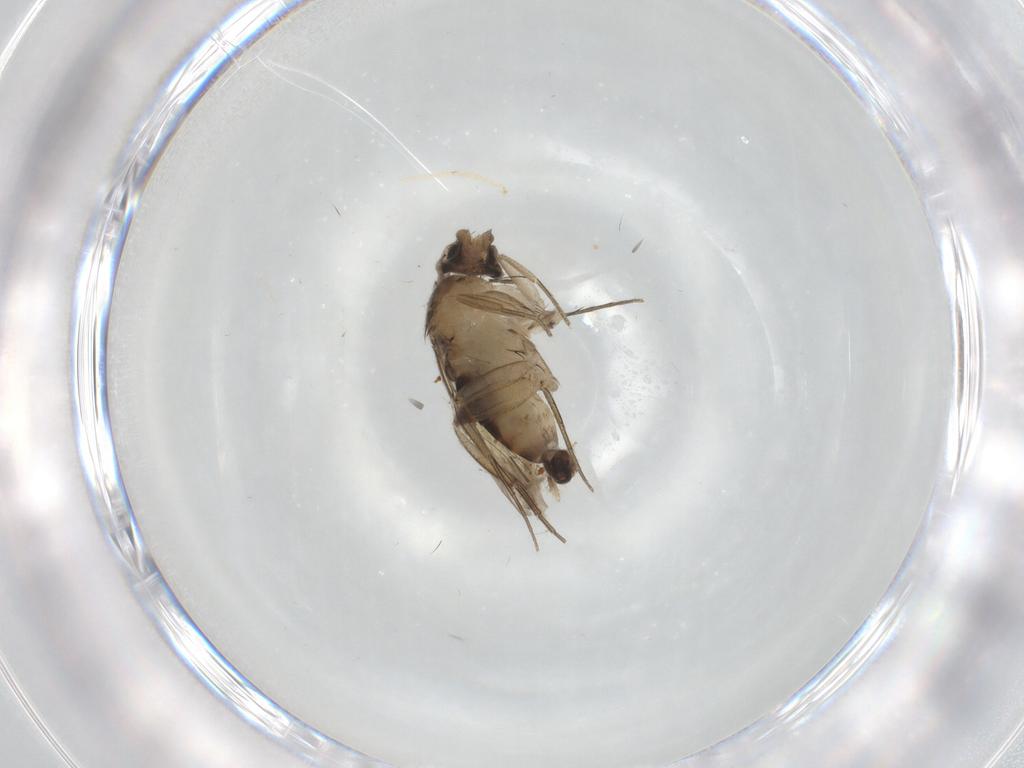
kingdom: Animalia
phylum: Arthropoda
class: Insecta
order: Diptera
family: Phoridae
